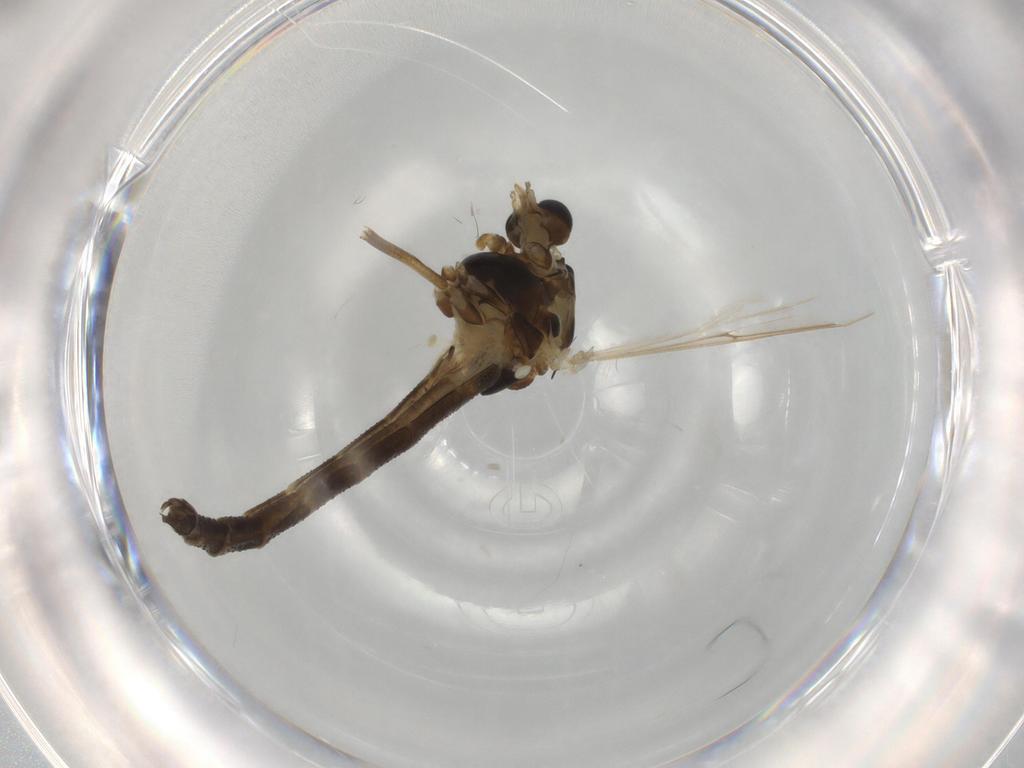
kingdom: Animalia
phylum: Arthropoda
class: Insecta
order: Diptera
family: Empididae
